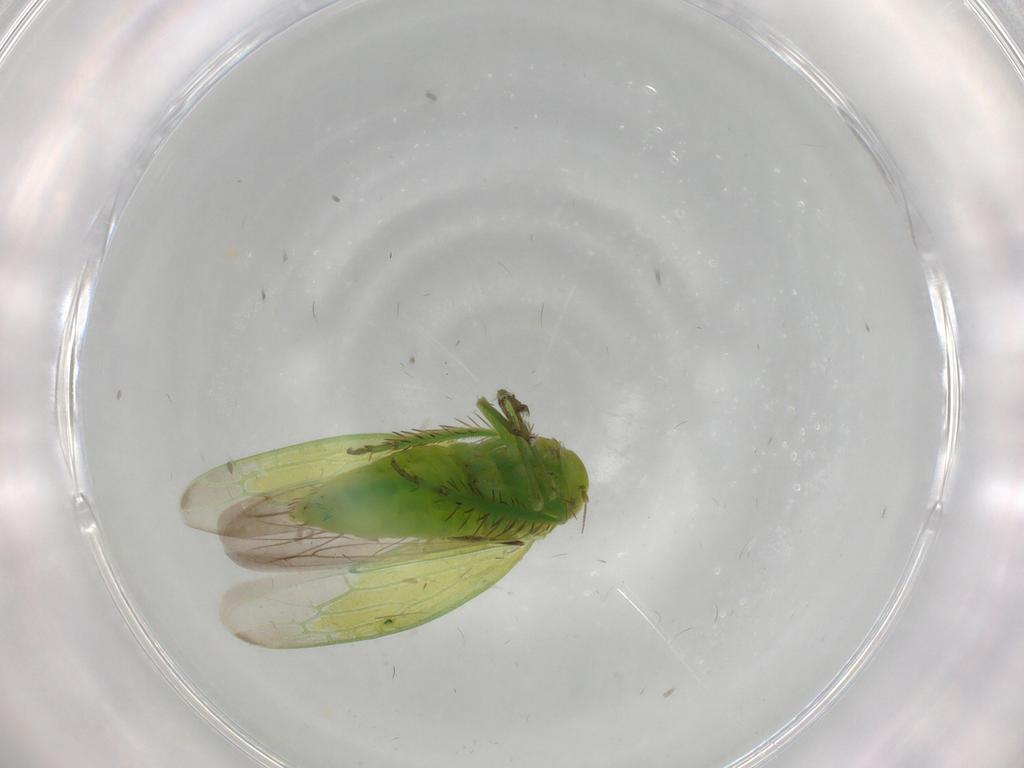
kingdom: Animalia
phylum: Arthropoda
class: Insecta
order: Hemiptera
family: Cicadellidae
